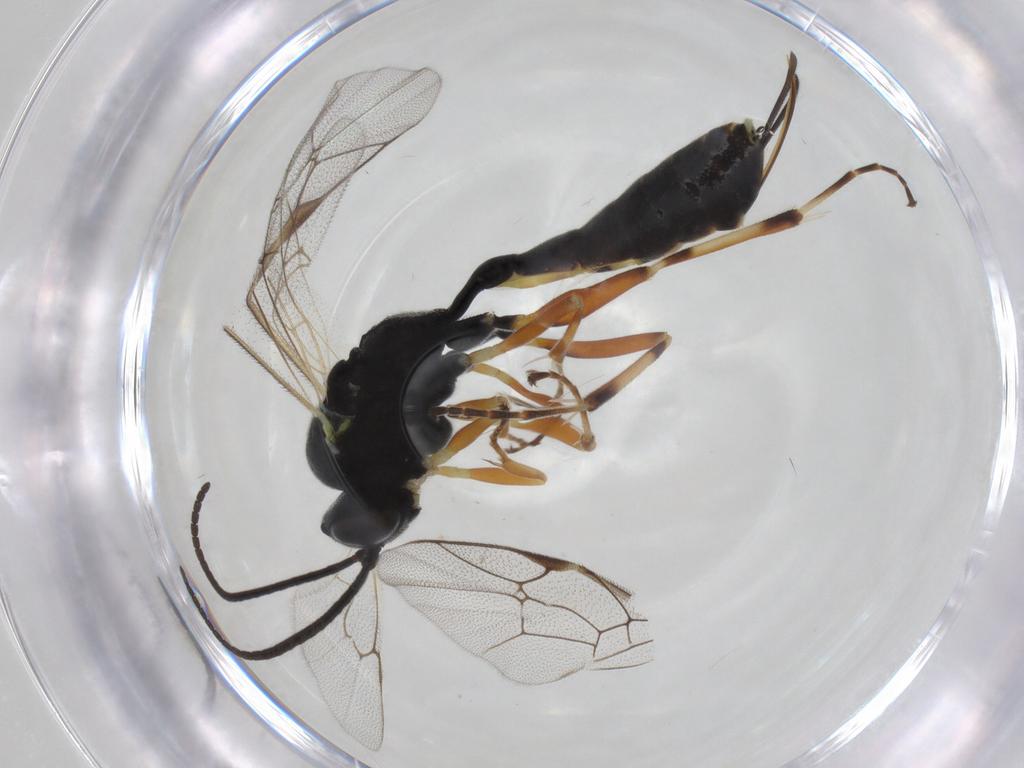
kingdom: Animalia
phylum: Arthropoda
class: Insecta
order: Hymenoptera
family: Ichneumonidae
